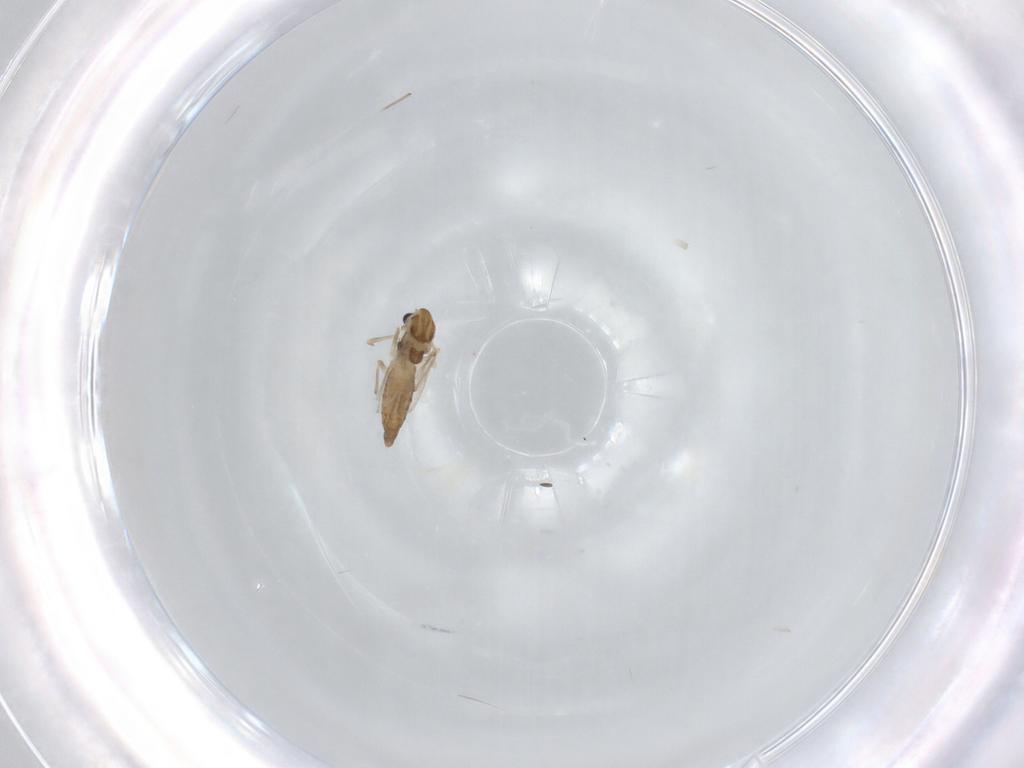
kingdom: Animalia
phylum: Arthropoda
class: Insecta
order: Diptera
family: Chironomidae
